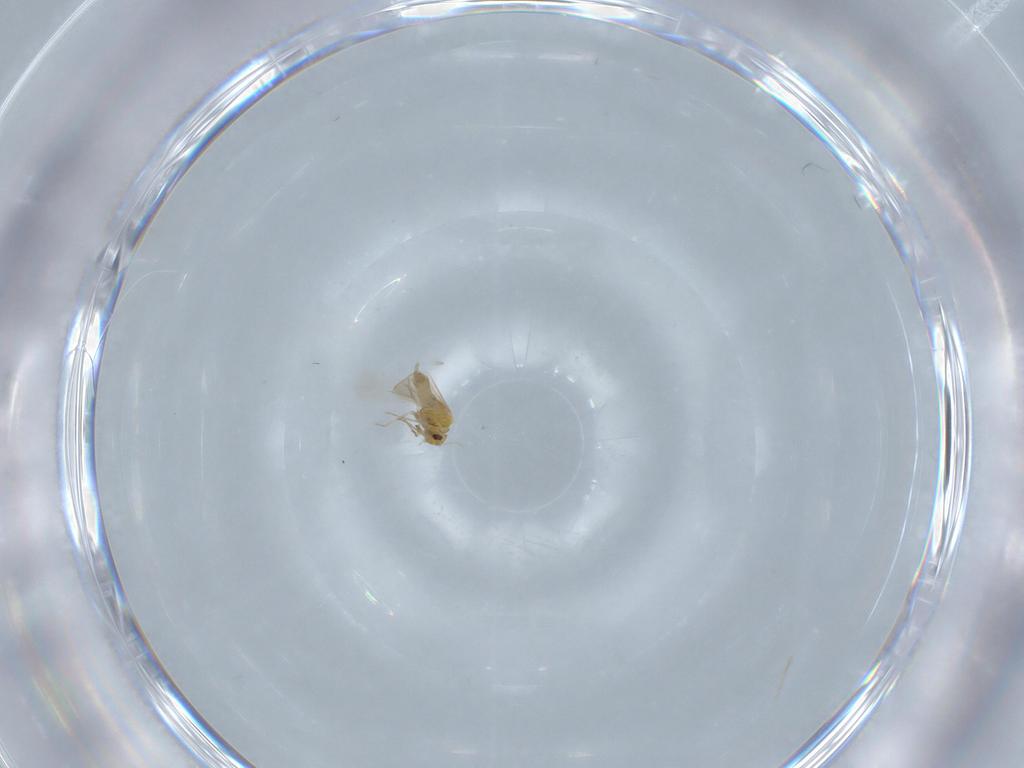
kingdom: Animalia
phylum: Arthropoda
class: Insecta
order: Hemiptera
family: Aleyrodidae
